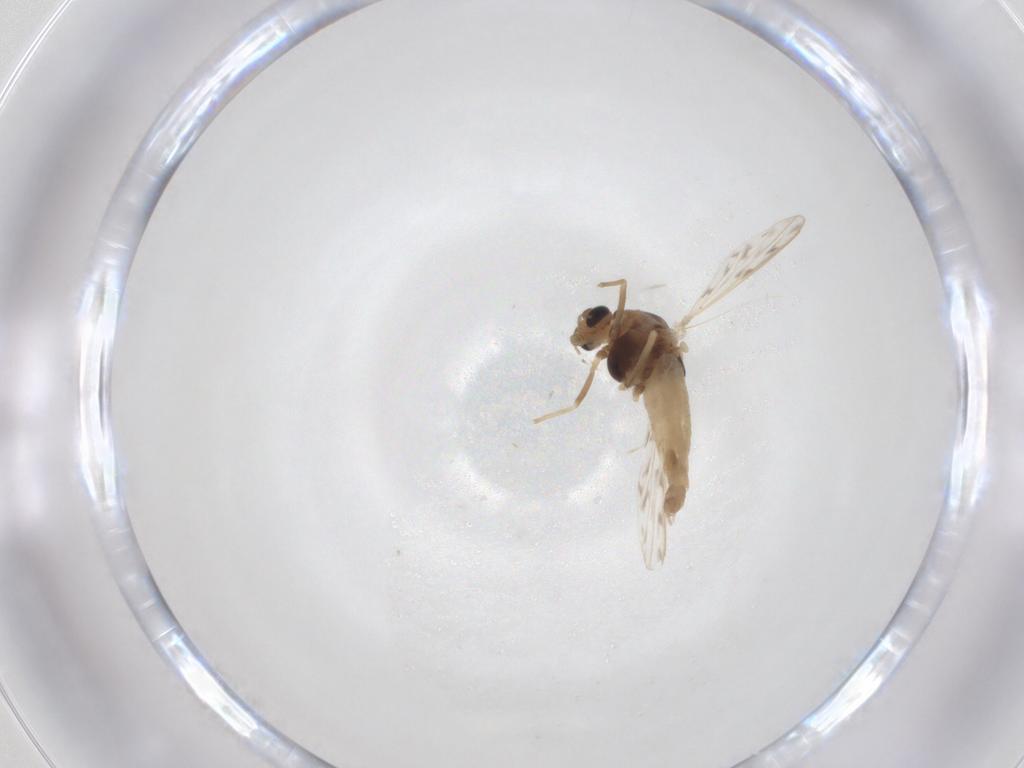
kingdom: Animalia
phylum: Arthropoda
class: Insecta
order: Diptera
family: Chironomidae
